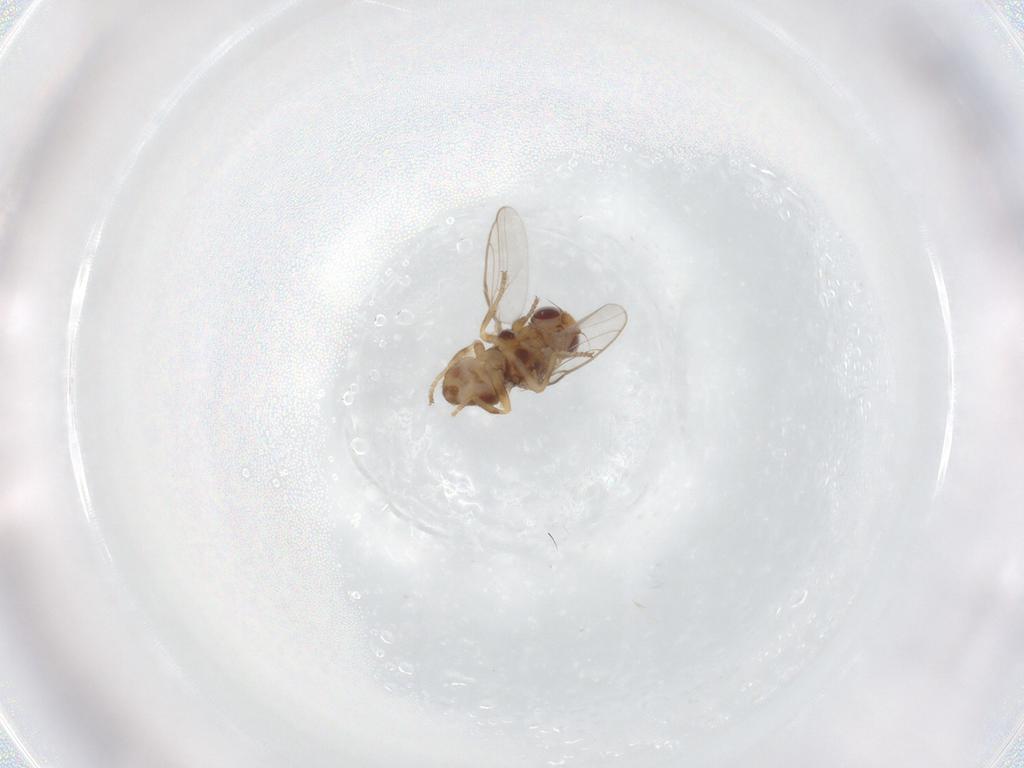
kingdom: Animalia
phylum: Arthropoda
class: Insecta
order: Diptera
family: Chloropidae
